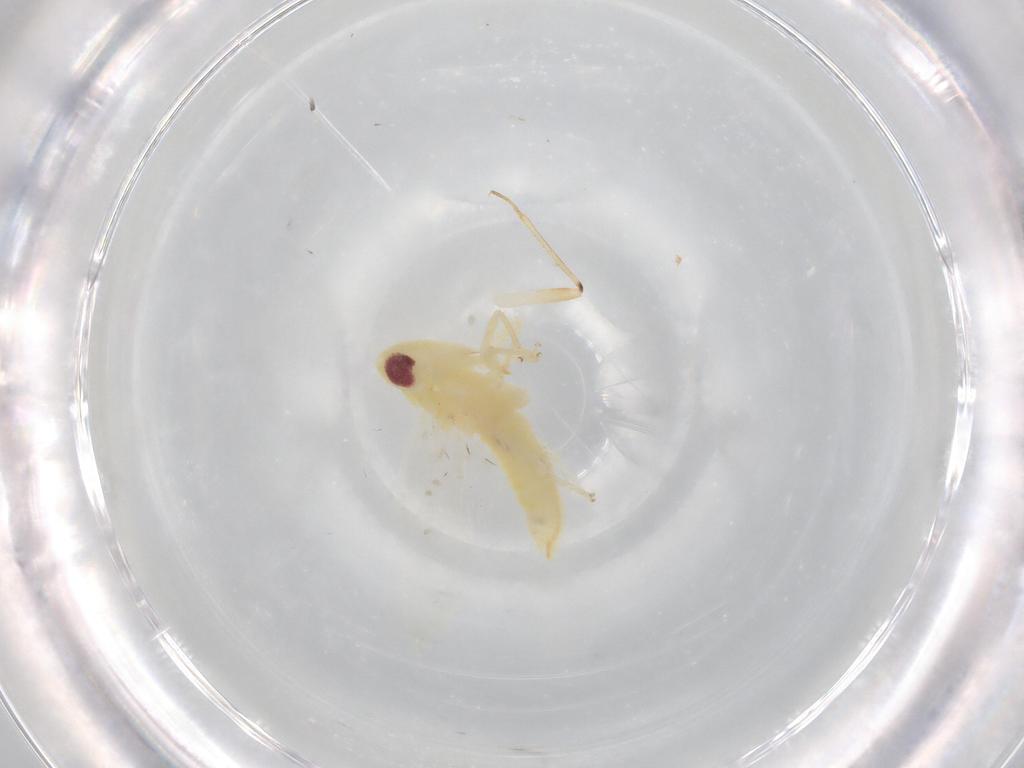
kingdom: Animalia
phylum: Arthropoda
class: Insecta
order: Hemiptera
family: Cicadellidae
